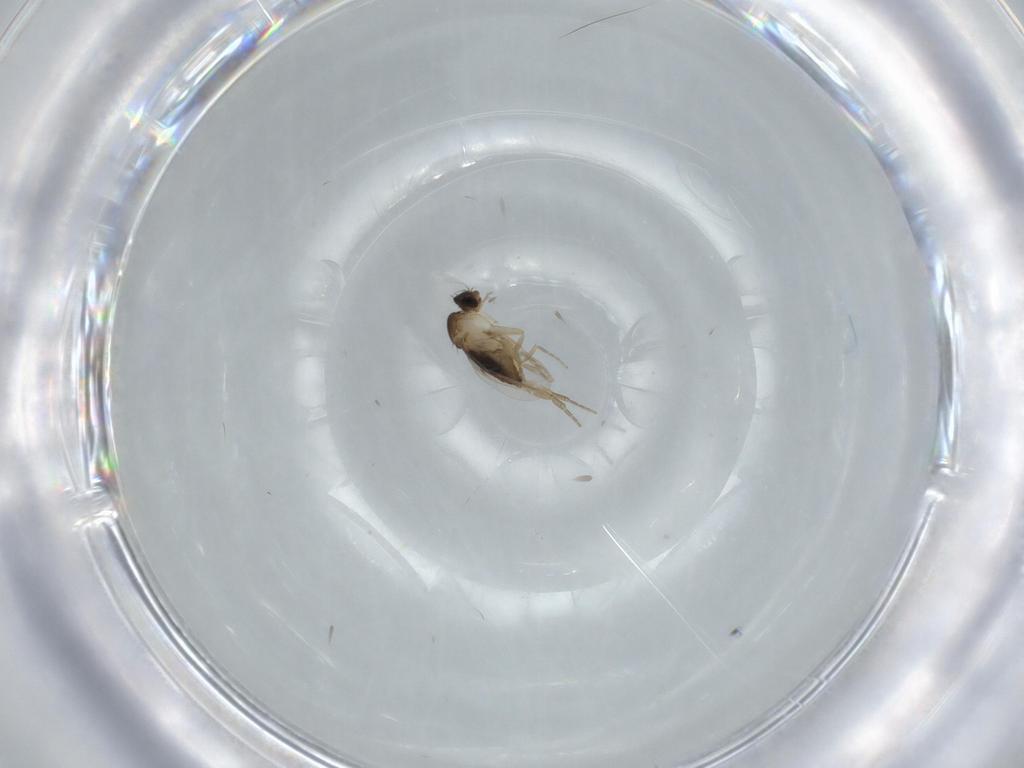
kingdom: Animalia
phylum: Arthropoda
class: Insecta
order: Diptera
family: Phoridae
